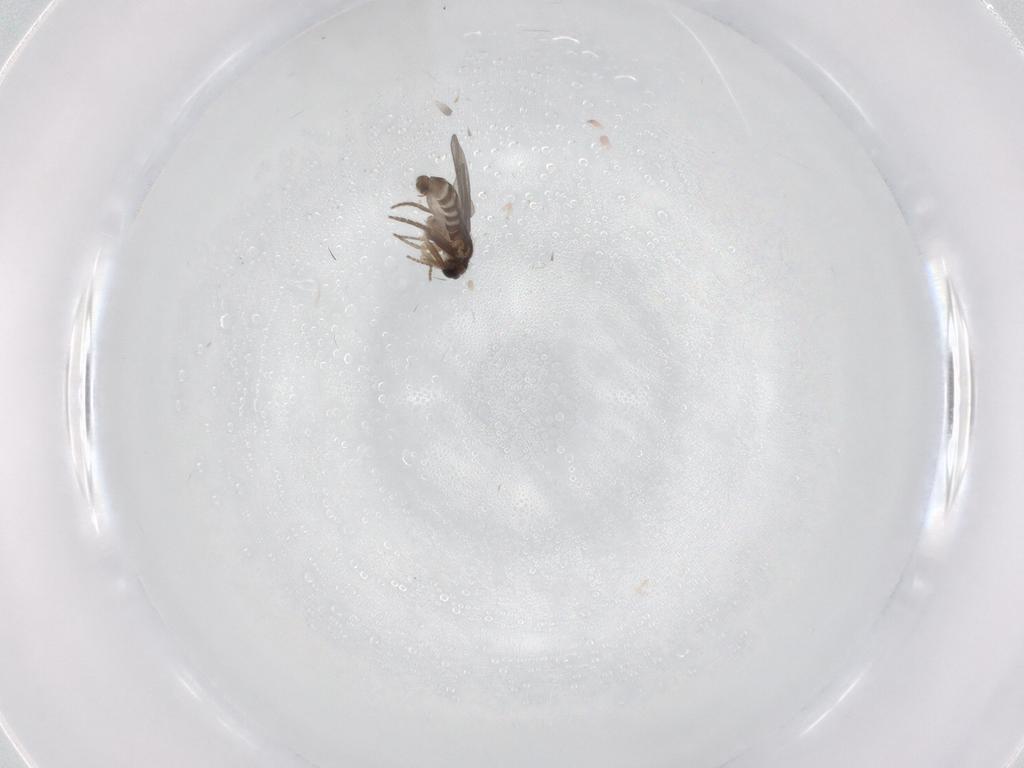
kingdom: Animalia
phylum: Arthropoda
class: Insecta
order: Diptera
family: Cecidomyiidae
